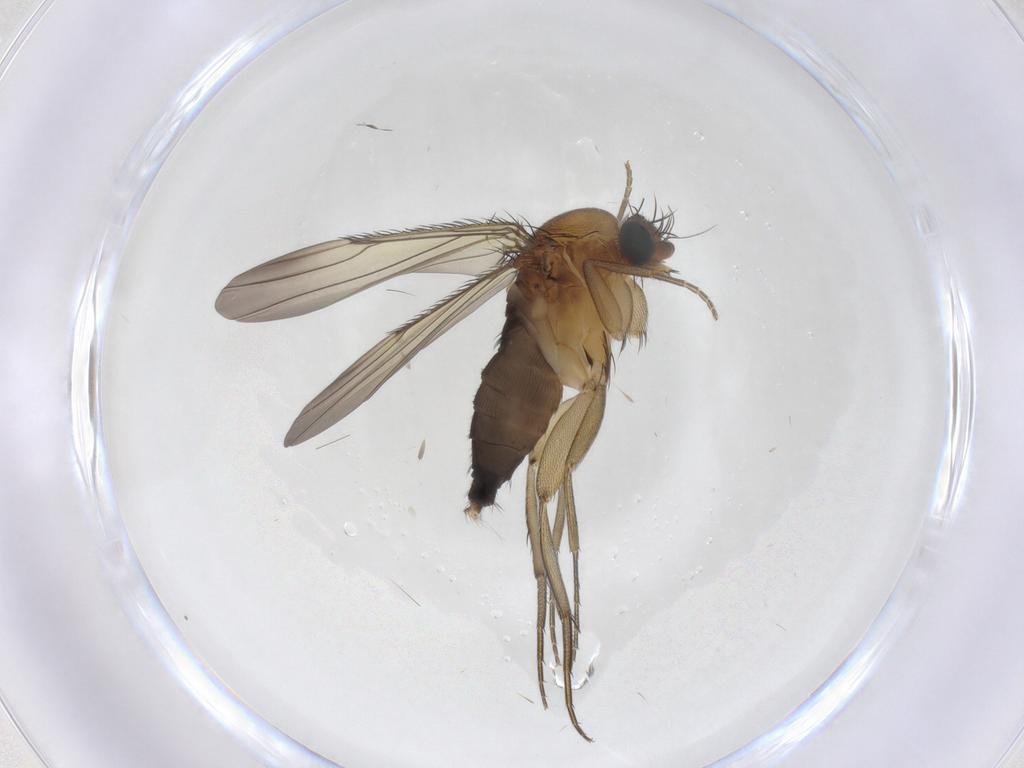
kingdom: Animalia
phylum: Arthropoda
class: Insecta
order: Diptera
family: Phoridae
